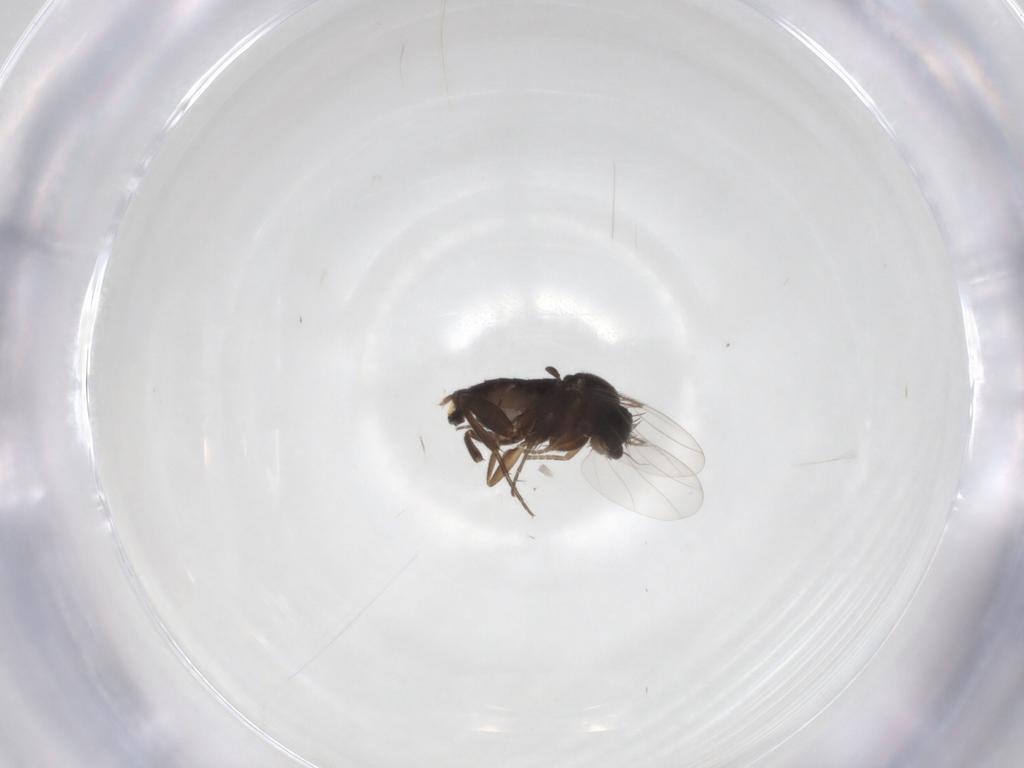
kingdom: Animalia
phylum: Arthropoda
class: Insecta
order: Diptera
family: Phoridae
